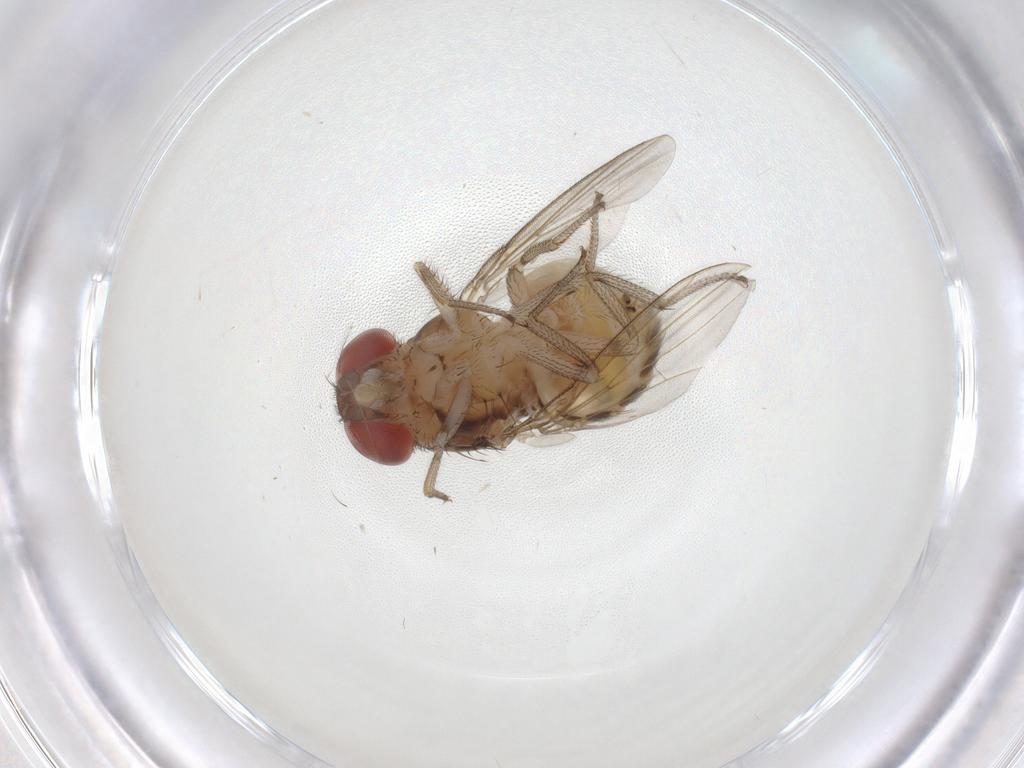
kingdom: Animalia
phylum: Arthropoda
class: Insecta
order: Diptera
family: Drosophilidae
